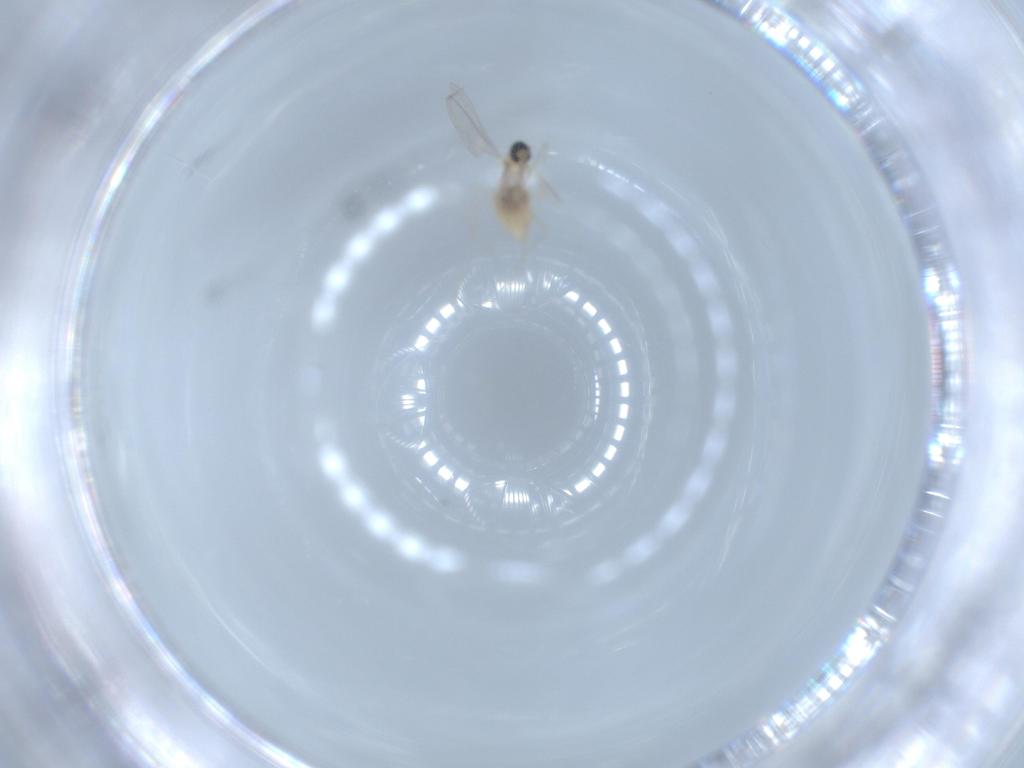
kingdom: Animalia
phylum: Arthropoda
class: Insecta
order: Diptera
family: Cecidomyiidae
